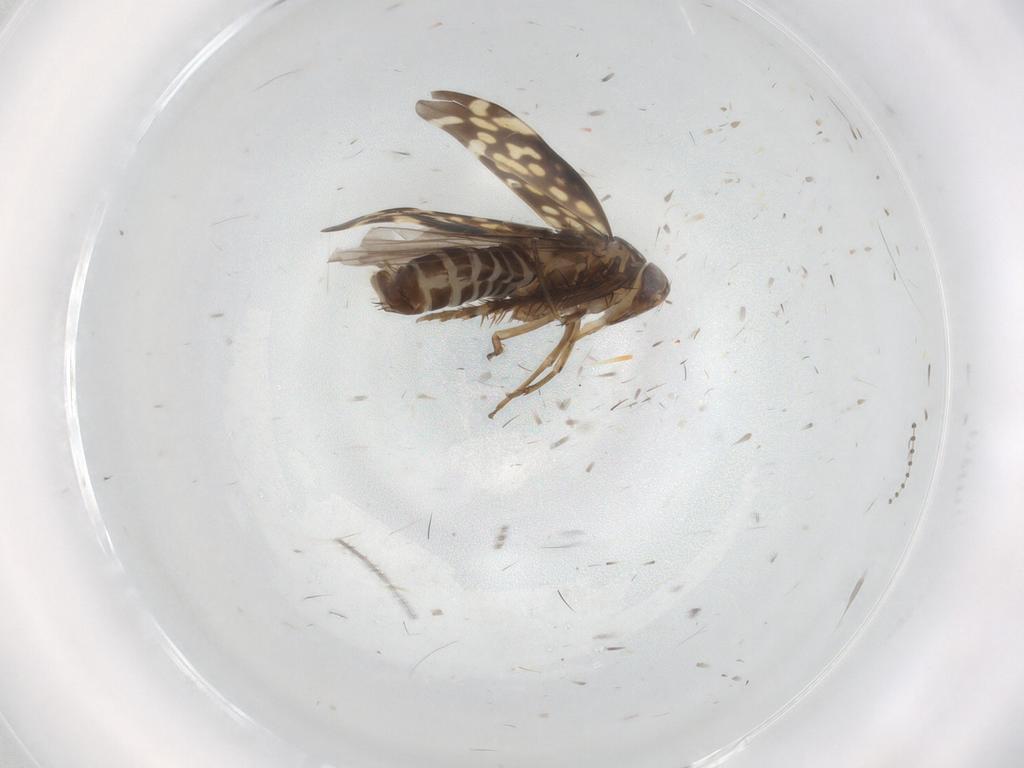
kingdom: Animalia
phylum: Arthropoda
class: Insecta
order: Hemiptera
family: Cicadellidae
